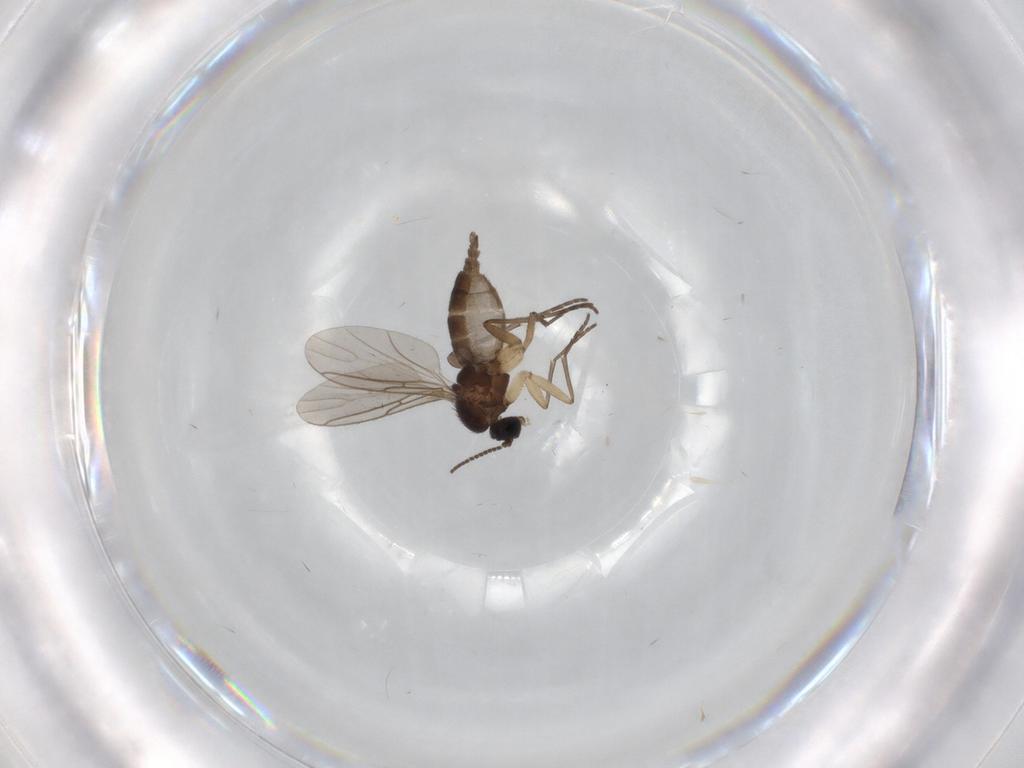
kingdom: Animalia
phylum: Arthropoda
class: Insecta
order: Diptera
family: Sciaridae
